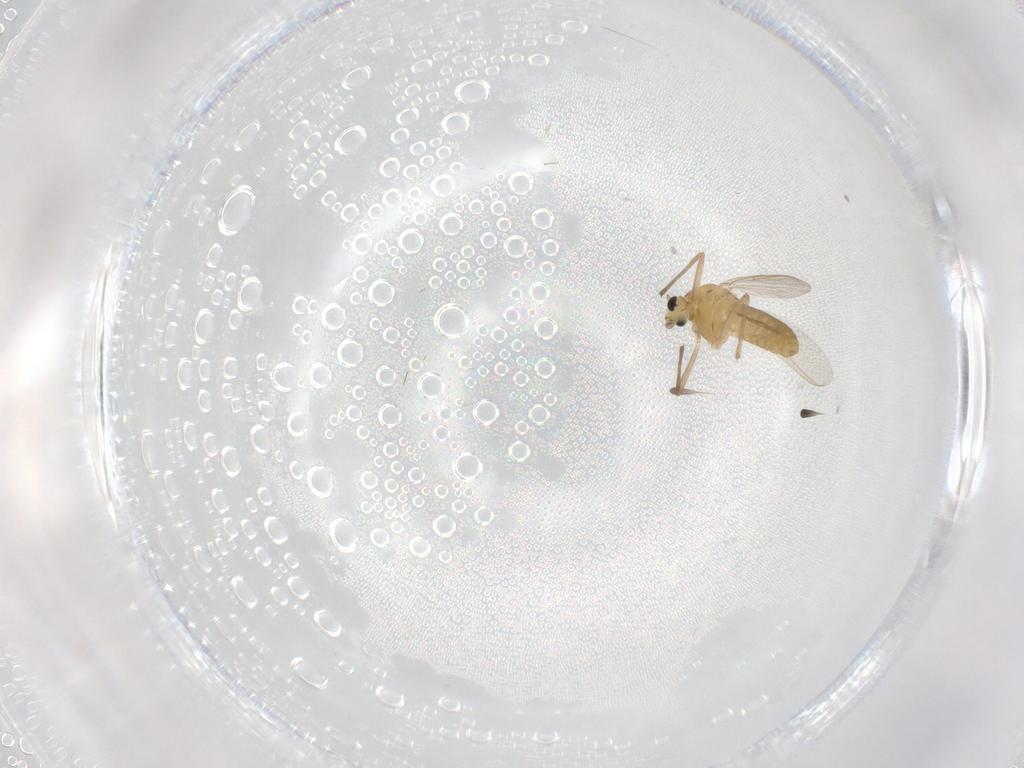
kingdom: Animalia
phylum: Arthropoda
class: Insecta
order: Diptera
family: Chironomidae
